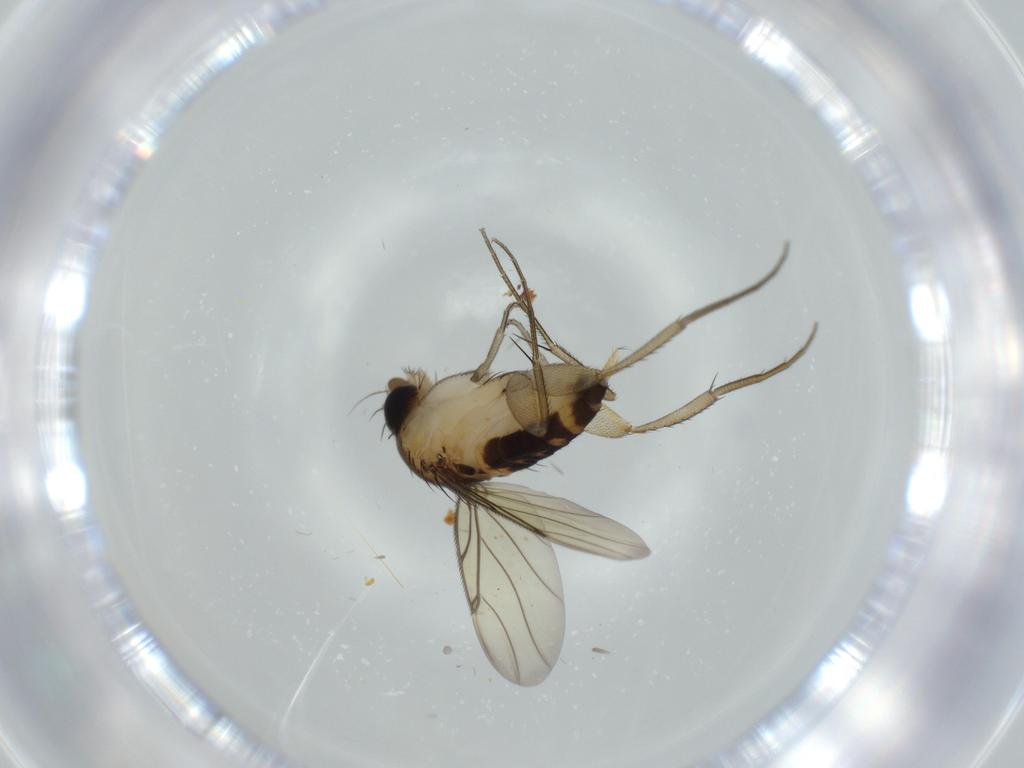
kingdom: Animalia
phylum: Arthropoda
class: Insecta
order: Diptera
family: Sciaridae
